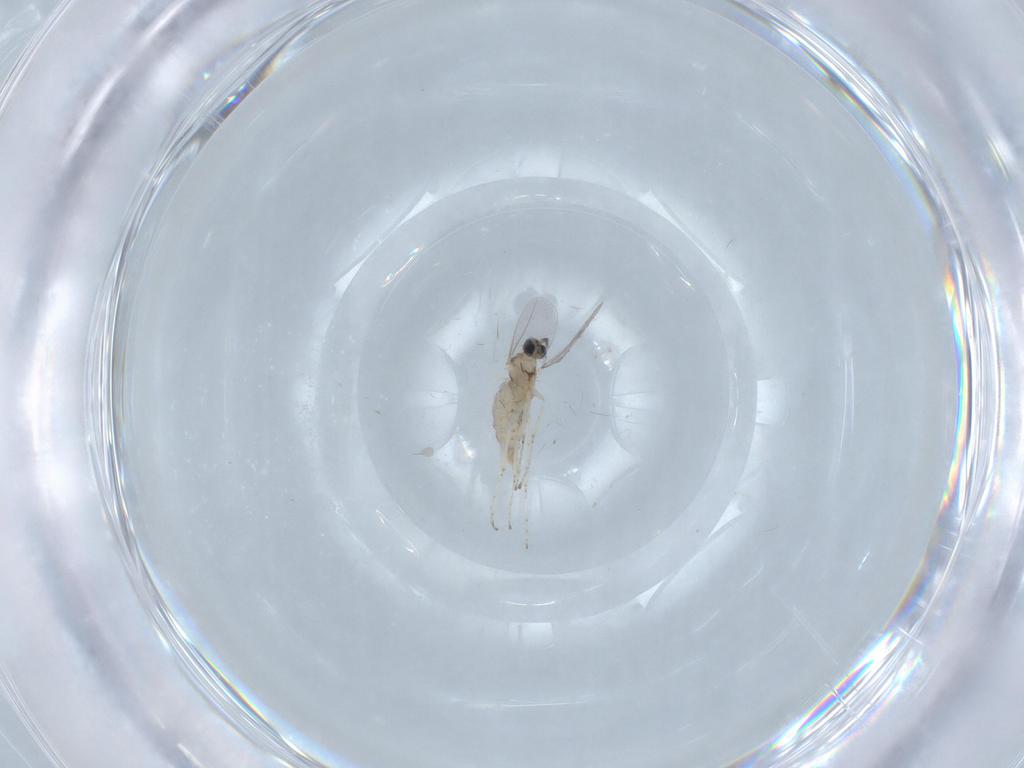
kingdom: Animalia
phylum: Arthropoda
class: Insecta
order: Diptera
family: Cecidomyiidae
